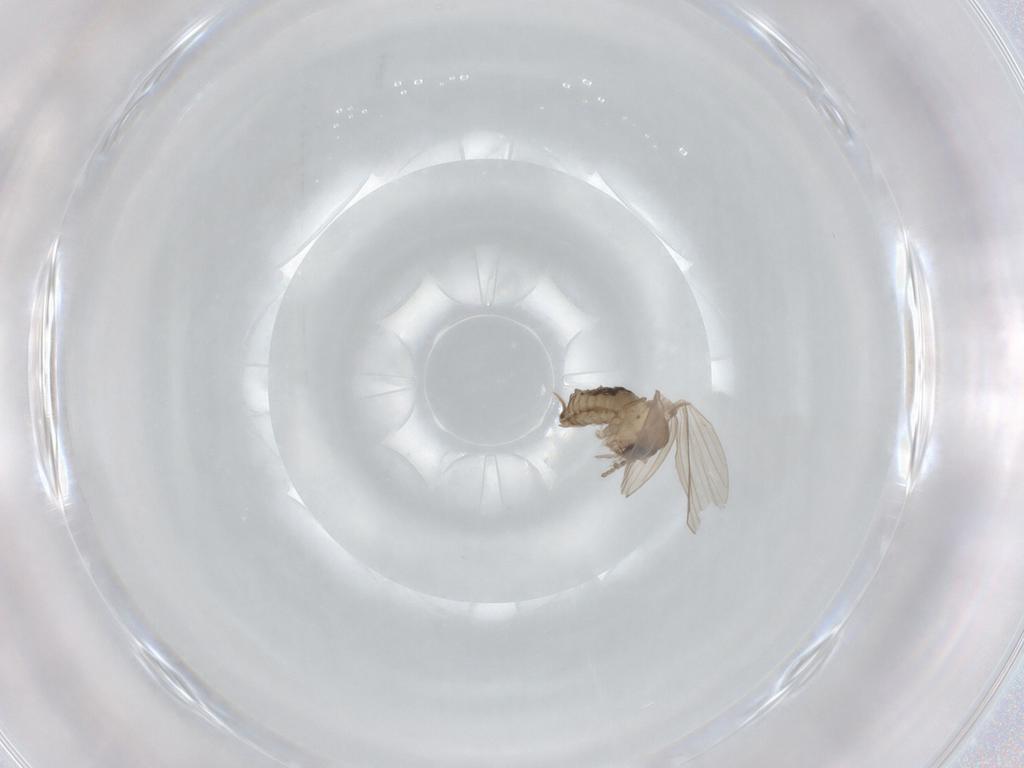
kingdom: Animalia
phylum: Arthropoda
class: Insecta
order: Diptera
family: Psychodidae
